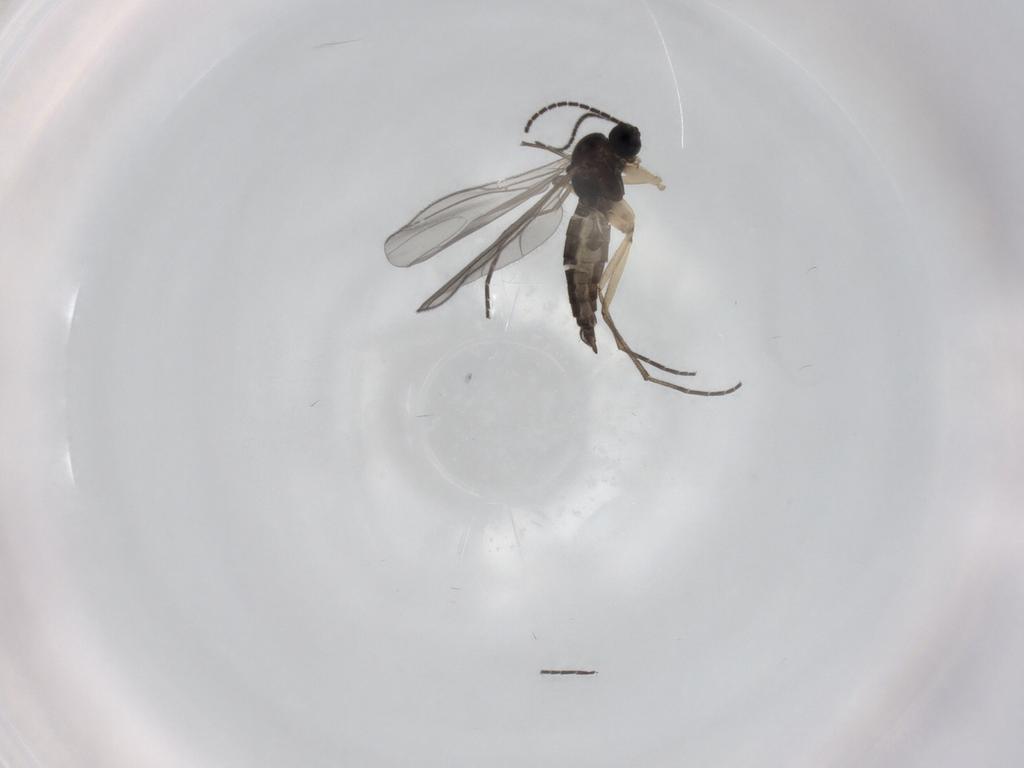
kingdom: Animalia
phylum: Arthropoda
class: Insecta
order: Diptera
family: Sciaridae
